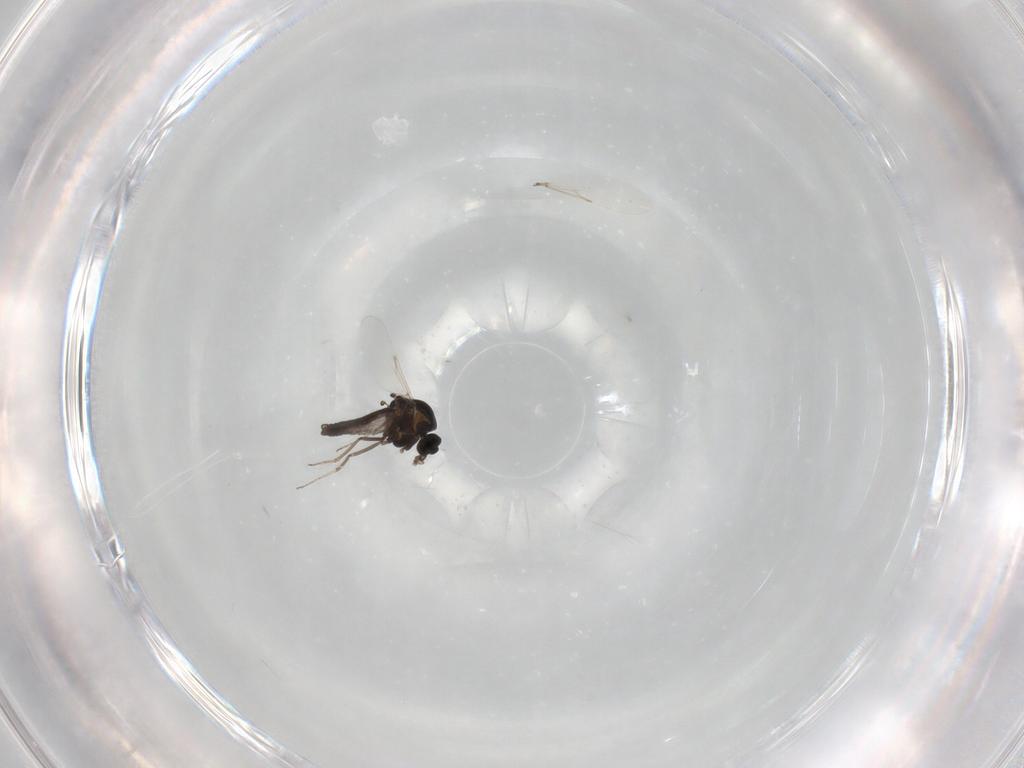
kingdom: Animalia
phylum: Arthropoda
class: Insecta
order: Diptera
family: Ceratopogonidae
